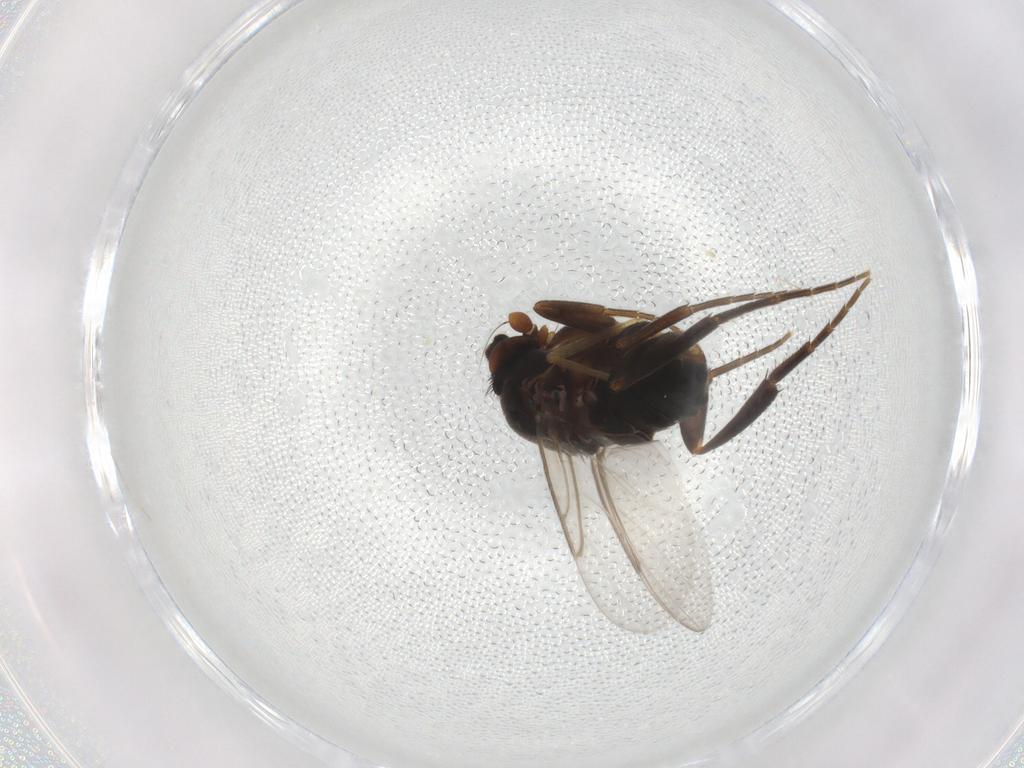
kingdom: Animalia
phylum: Arthropoda
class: Insecta
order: Diptera
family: Phoridae
